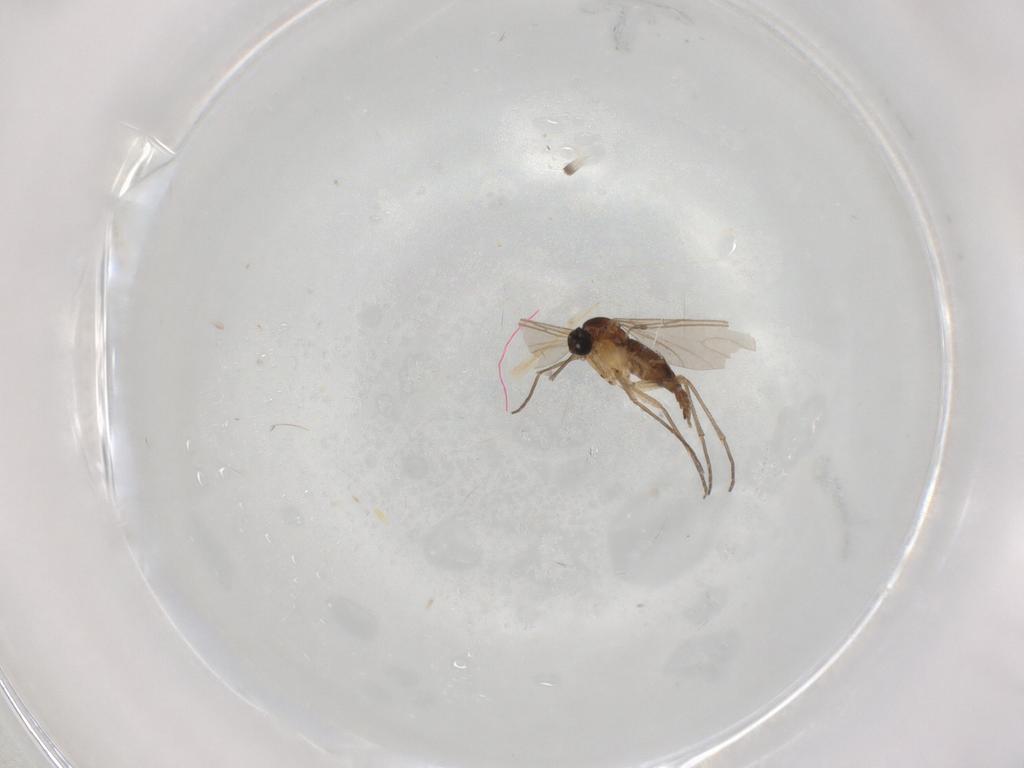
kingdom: Animalia
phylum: Arthropoda
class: Insecta
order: Diptera
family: Sciaridae
